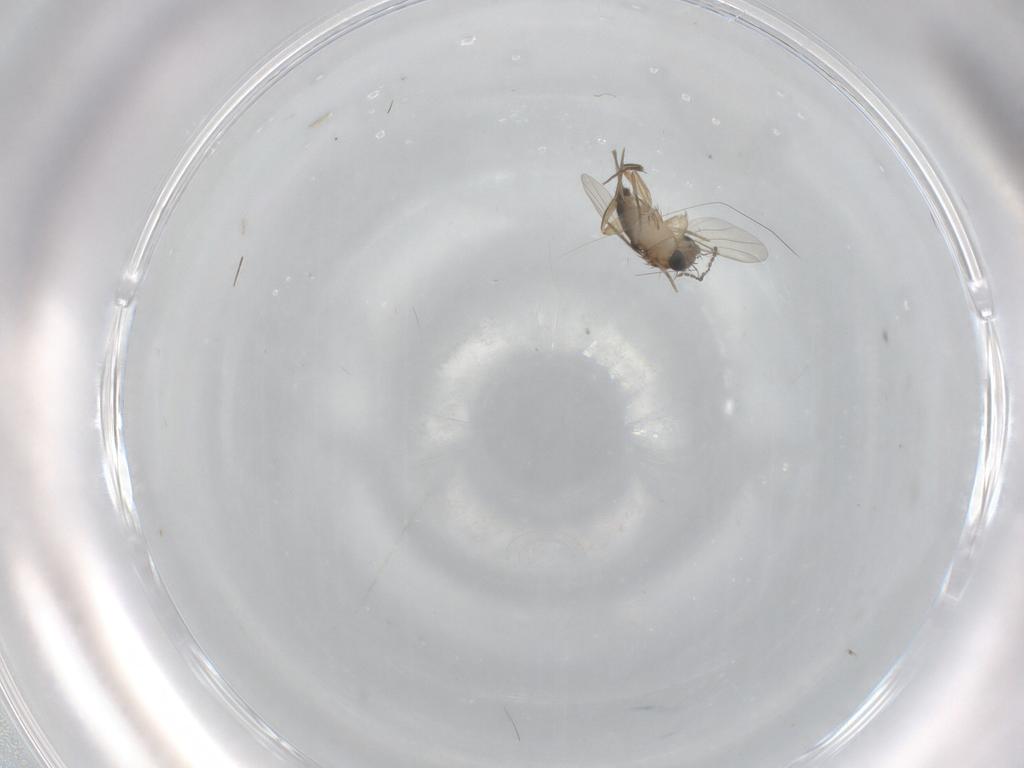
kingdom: Animalia
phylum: Arthropoda
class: Insecta
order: Diptera
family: Phoridae
